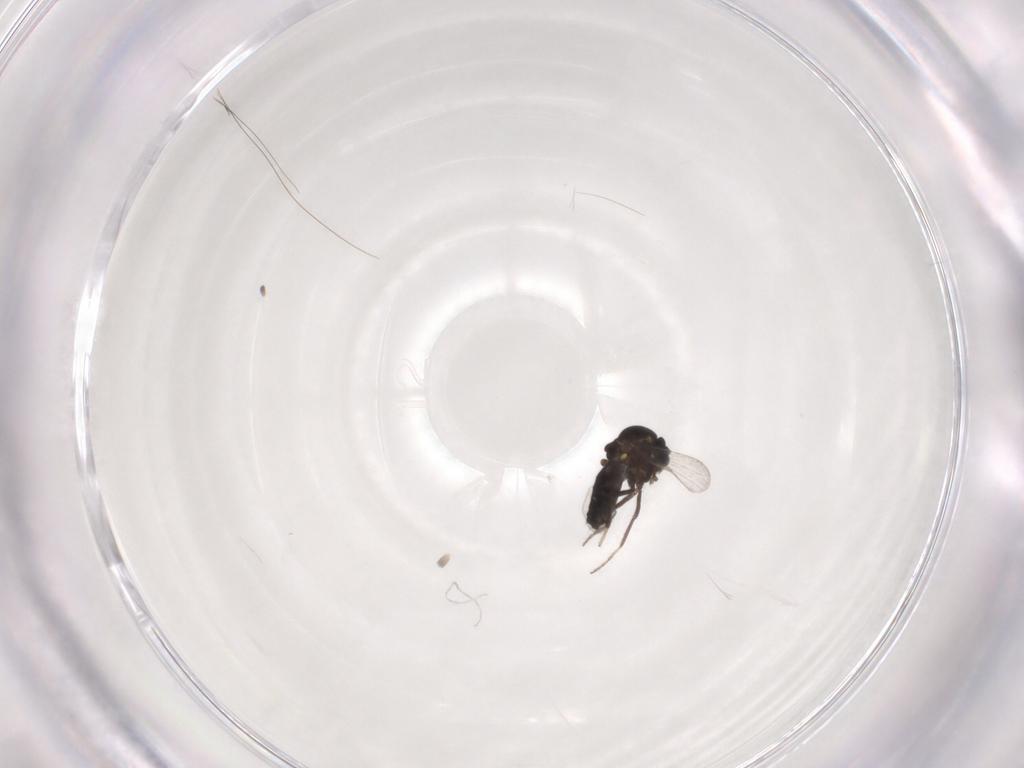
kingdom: Animalia
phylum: Arthropoda
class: Insecta
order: Diptera
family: Ceratopogonidae
